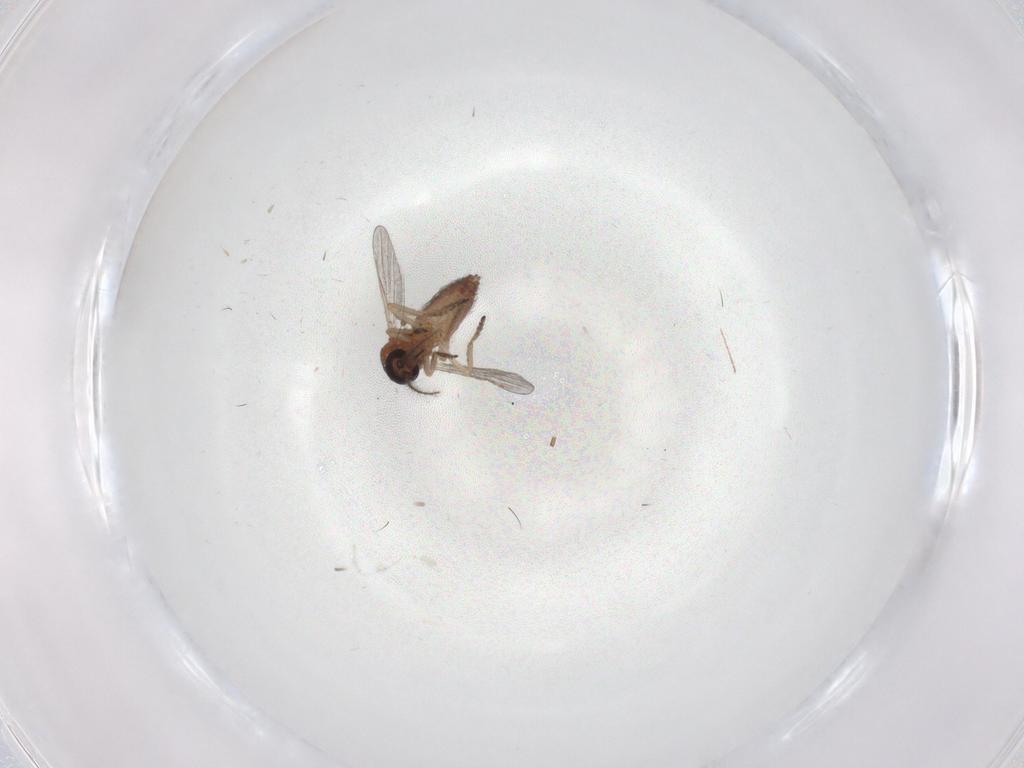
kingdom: Animalia
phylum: Arthropoda
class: Insecta
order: Diptera
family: Ceratopogonidae
